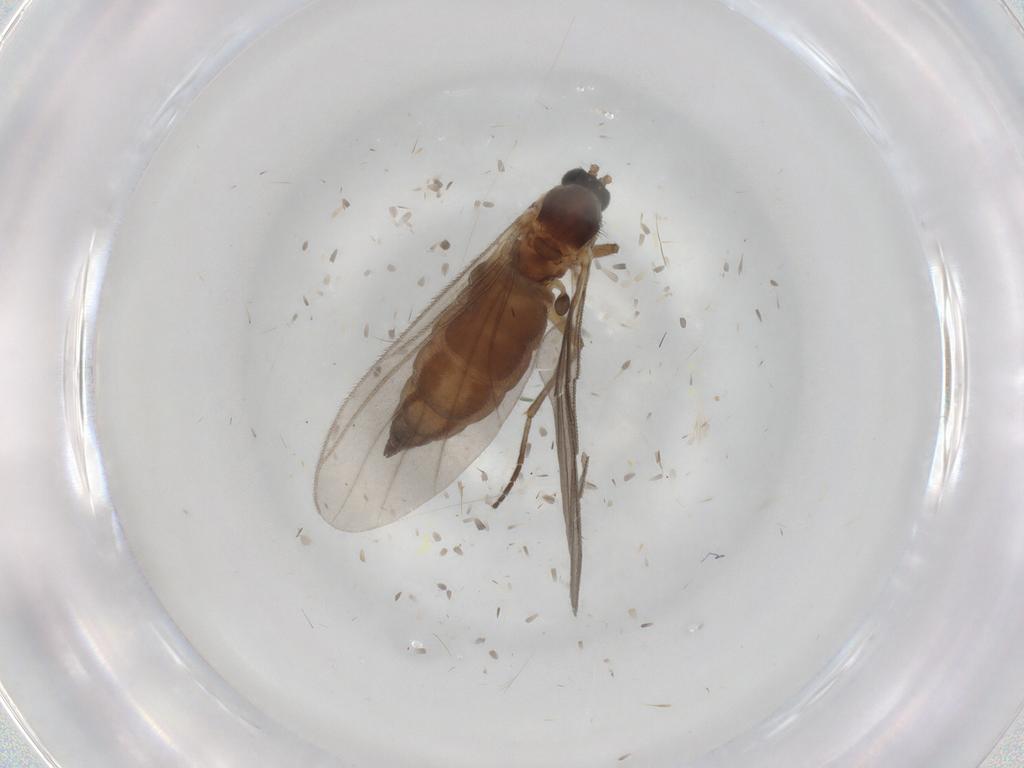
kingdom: Animalia
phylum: Arthropoda
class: Insecta
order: Diptera
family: Sciaridae
